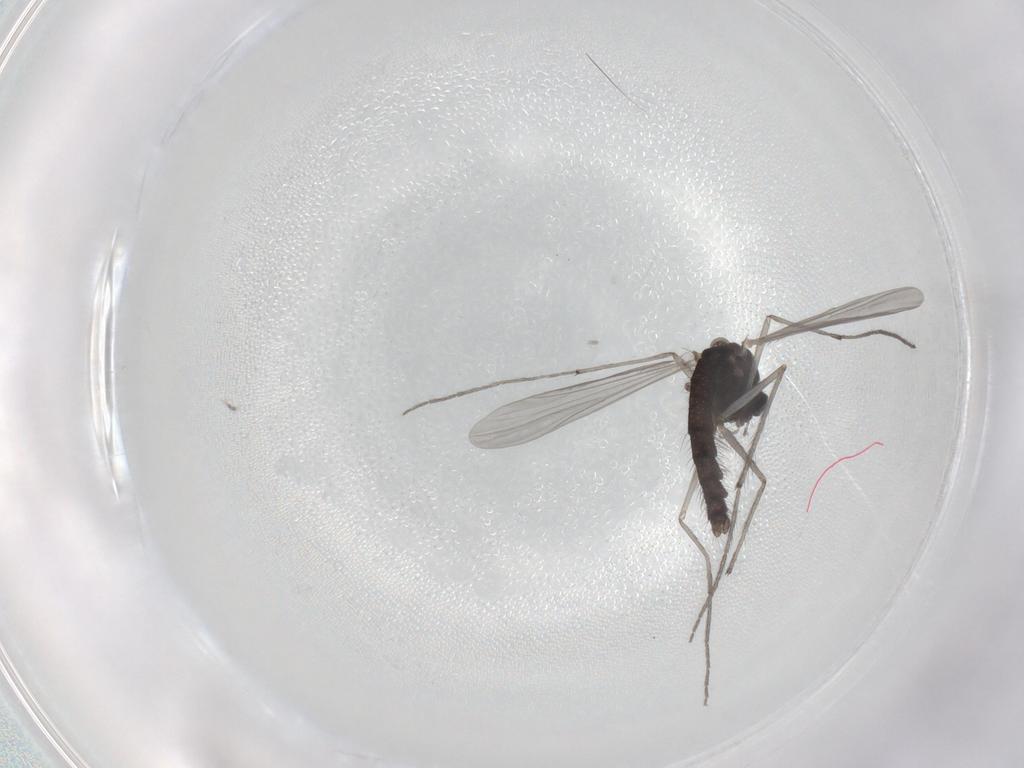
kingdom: Animalia
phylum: Arthropoda
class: Insecta
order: Diptera
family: Chironomidae
